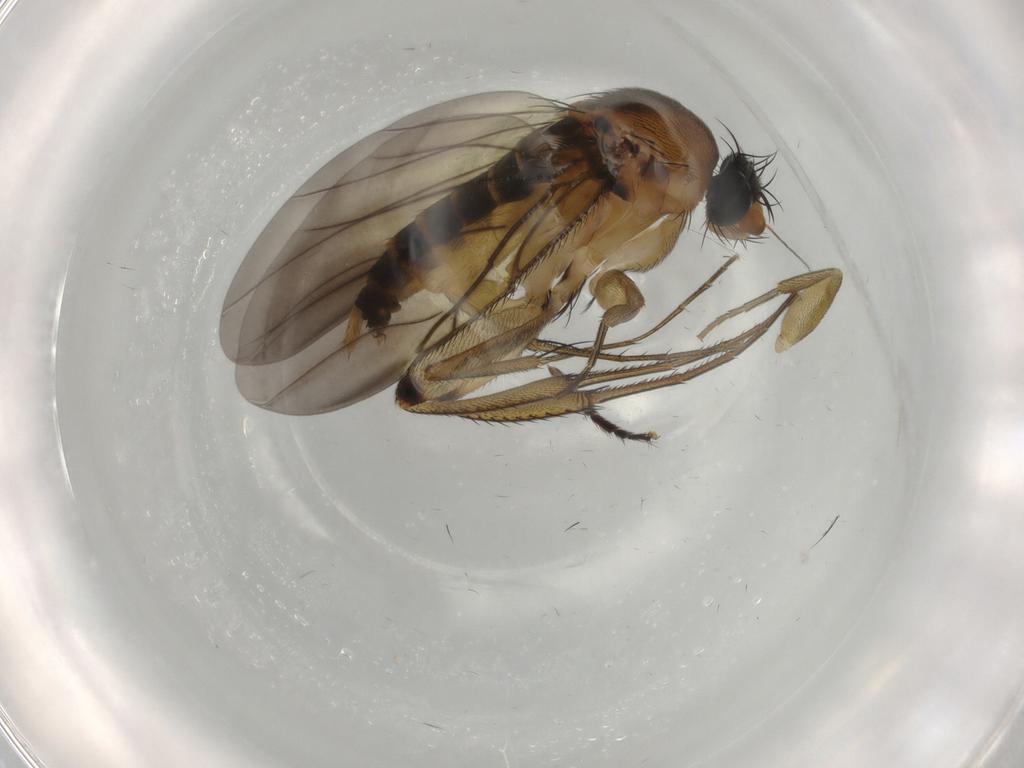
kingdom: Animalia
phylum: Arthropoda
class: Insecta
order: Diptera
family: Phoridae
